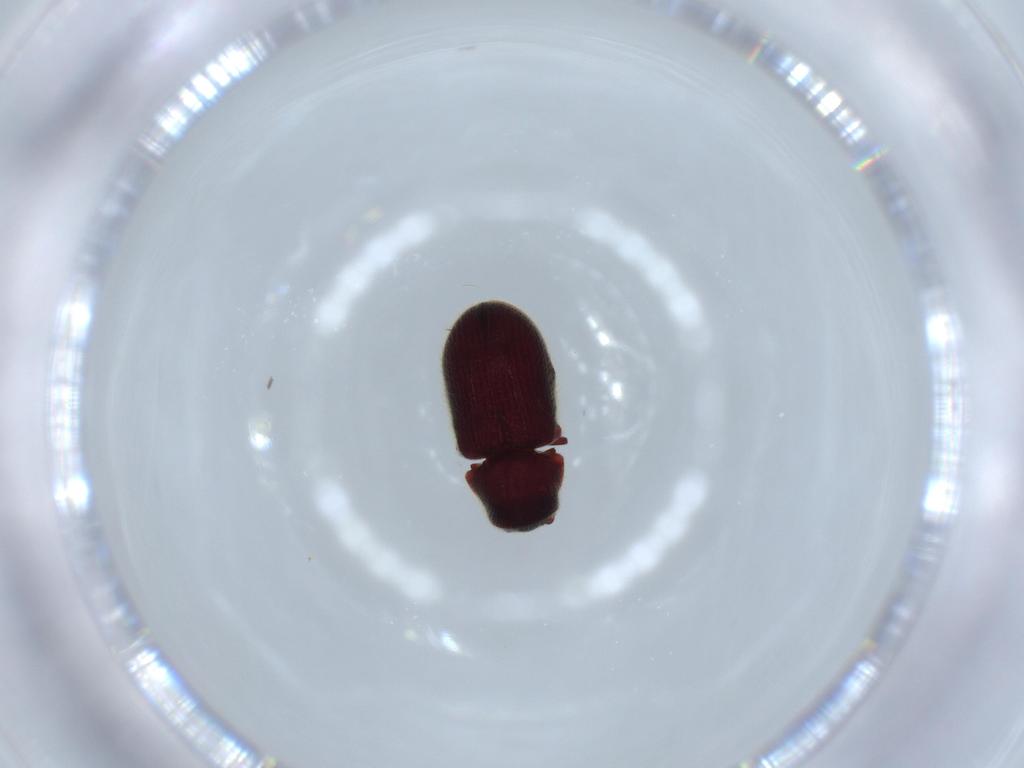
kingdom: Animalia
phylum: Arthropoda
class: Insecta
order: Coleoptera
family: Ptinidae
